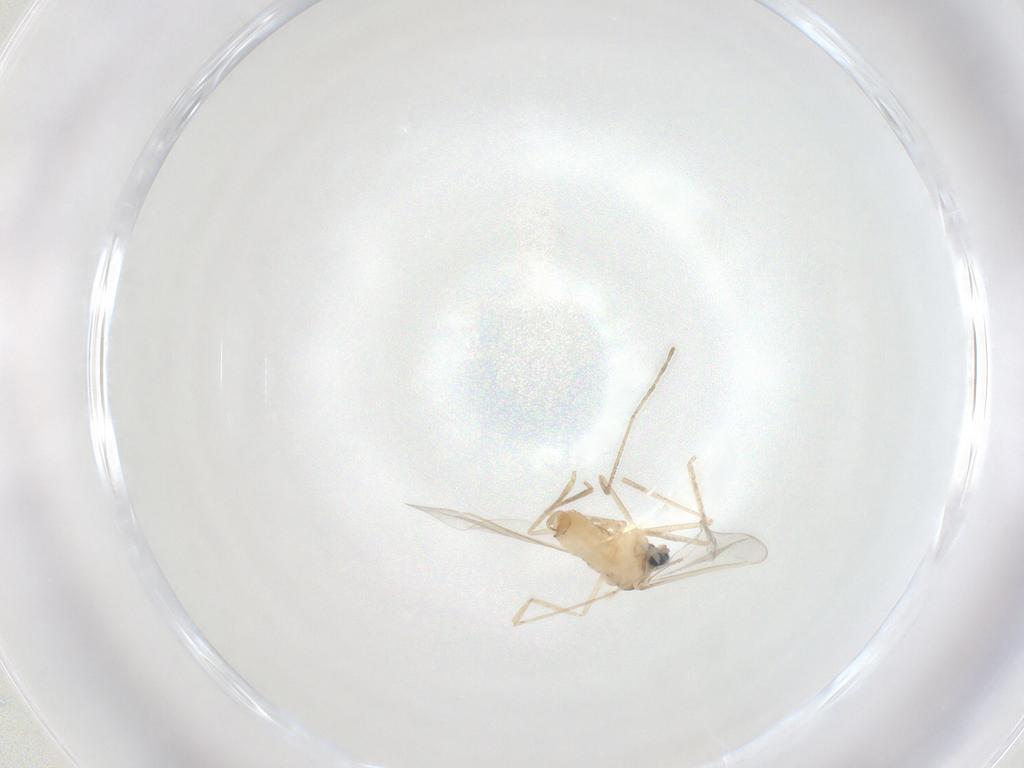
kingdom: Animalia
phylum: Arthropoda
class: Insecta
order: Diptera
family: Cecidomyiidae
